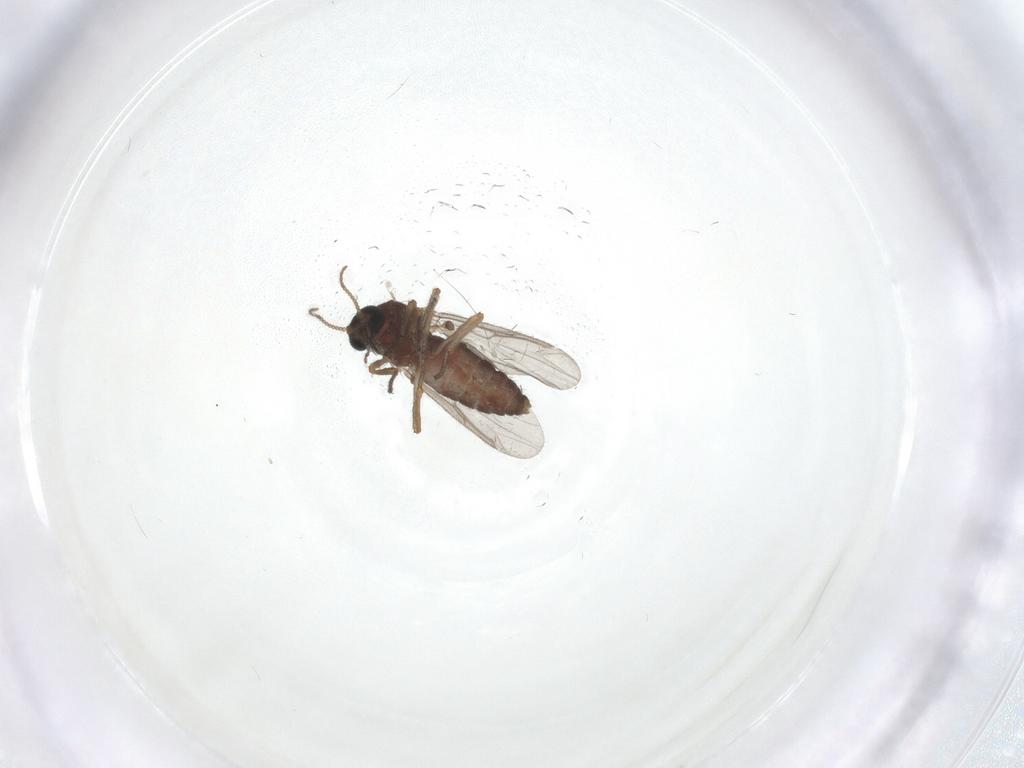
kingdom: Animalia
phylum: Arthropoda
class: Insecta
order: Diptera
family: Ceratopogonidae
